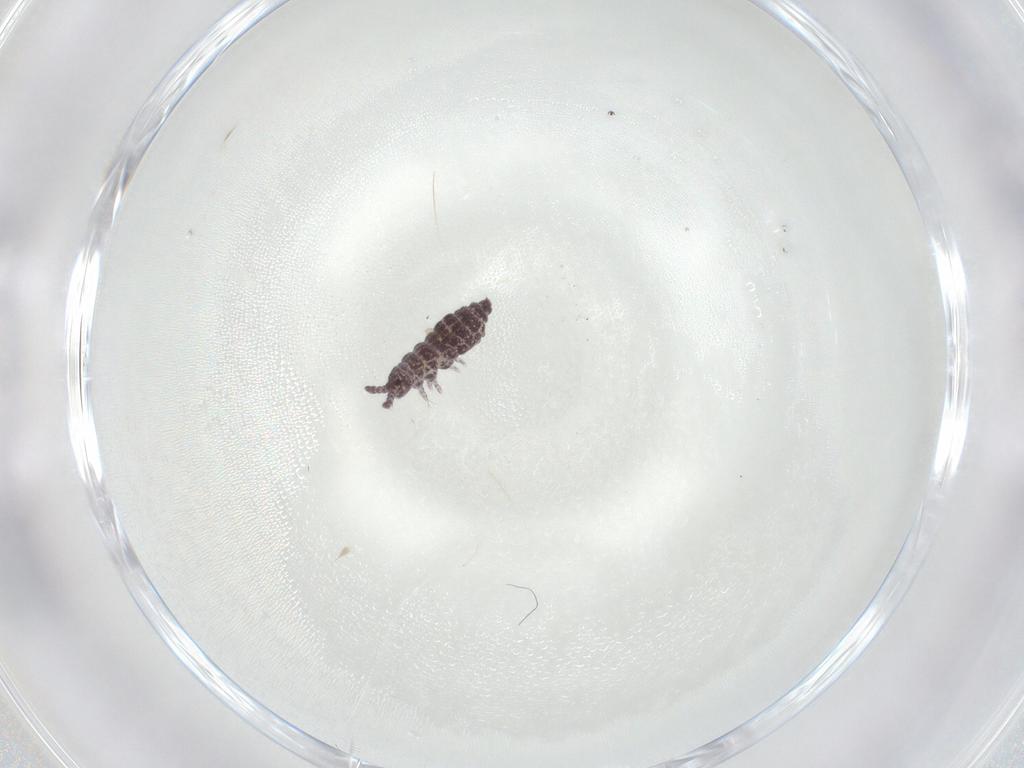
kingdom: Animalia
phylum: Arthropoda
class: Collembola
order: Poduromorpha
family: Hypogastruridae
